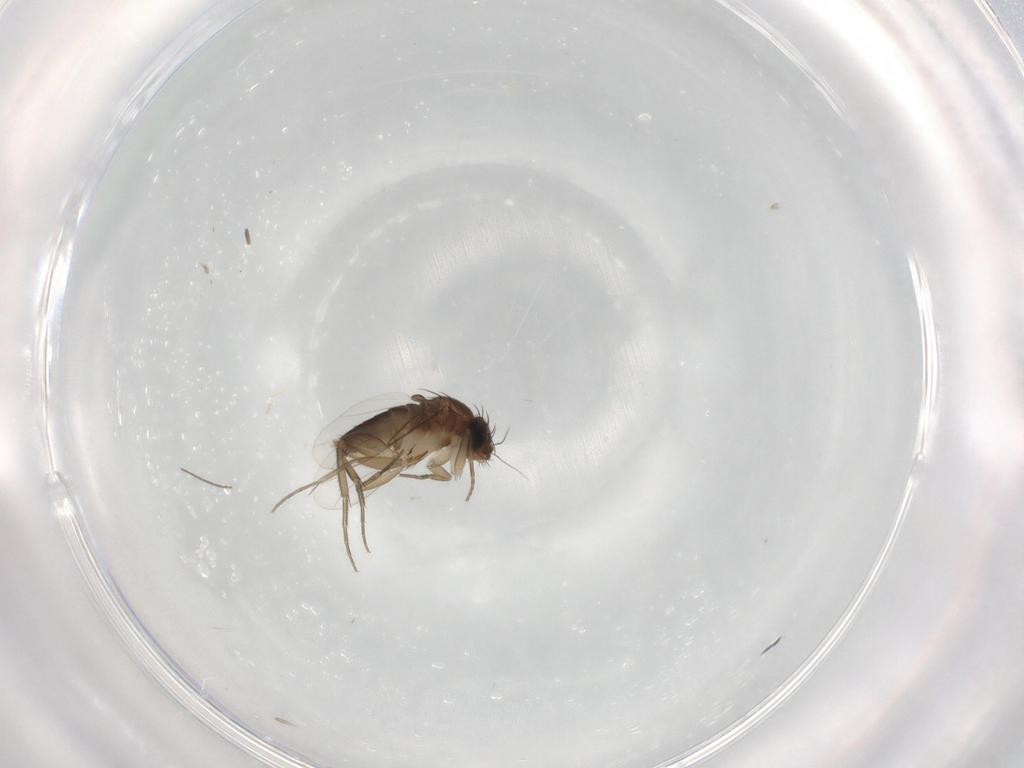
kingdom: Animalia
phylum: Arthropoda
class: Insecta
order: Diptera
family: Phoridae
